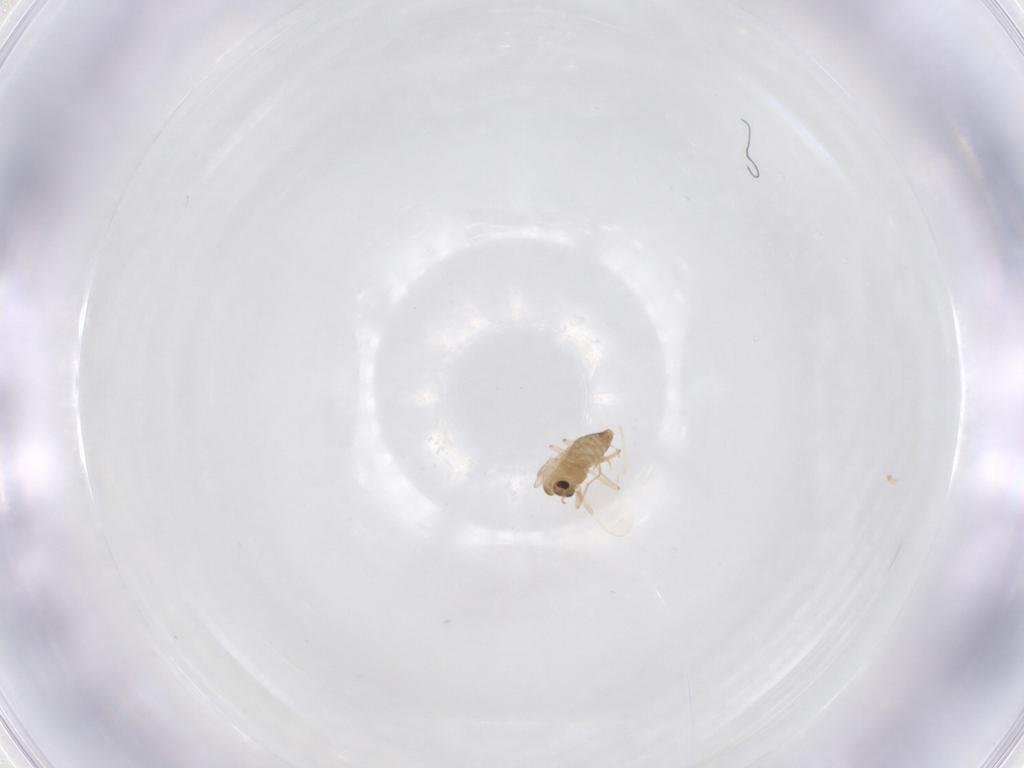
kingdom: Animalia
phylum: Arthropoda
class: Insecta
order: Diptera
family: Chironomidae
